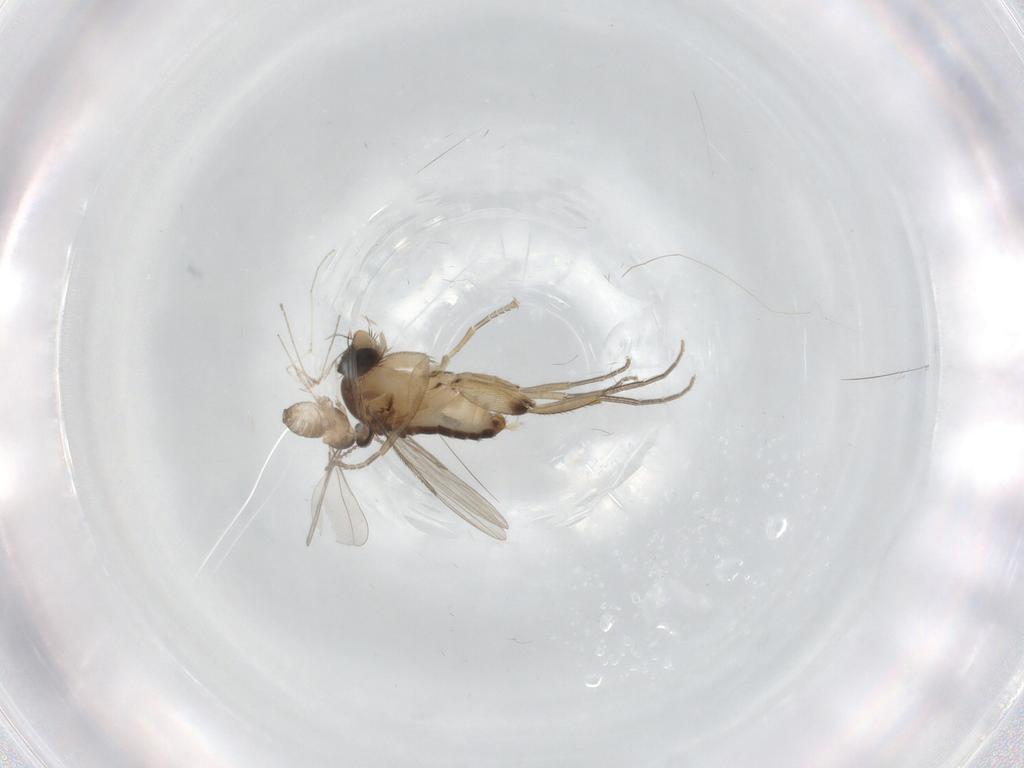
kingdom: Animalia
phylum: Arthropoda
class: Insecta
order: Diptera
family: Cecidomyiidae
